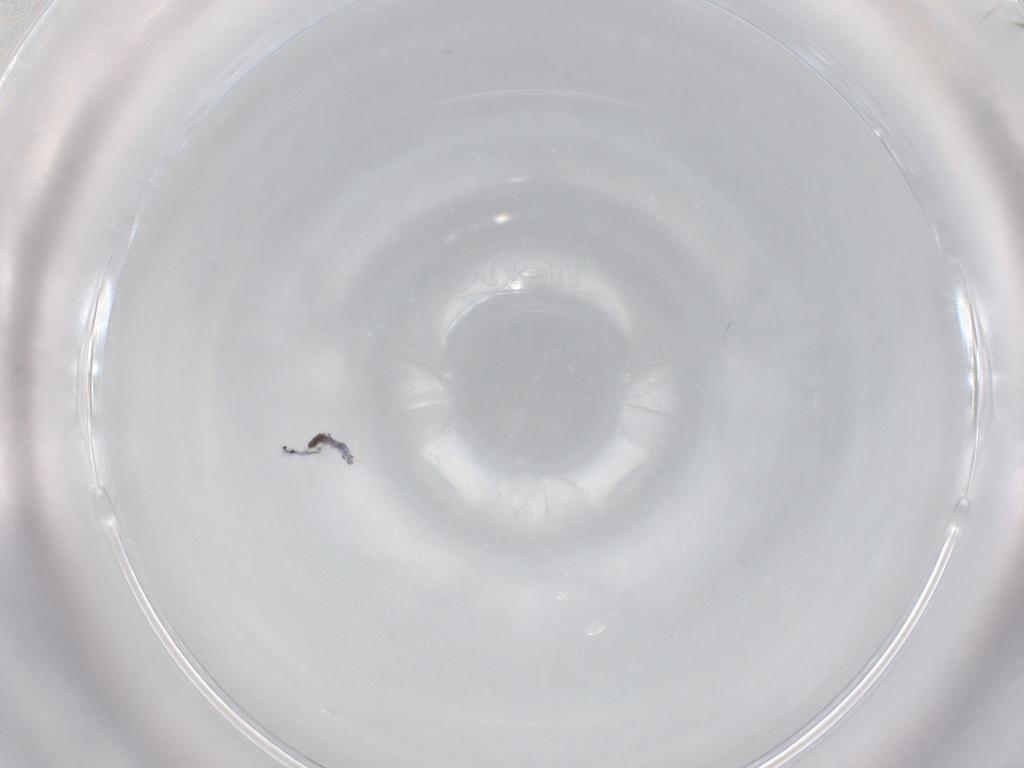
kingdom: Animalia
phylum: Arthropoda
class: Collembola
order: Entomobryomorpha
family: Entomobryidae
